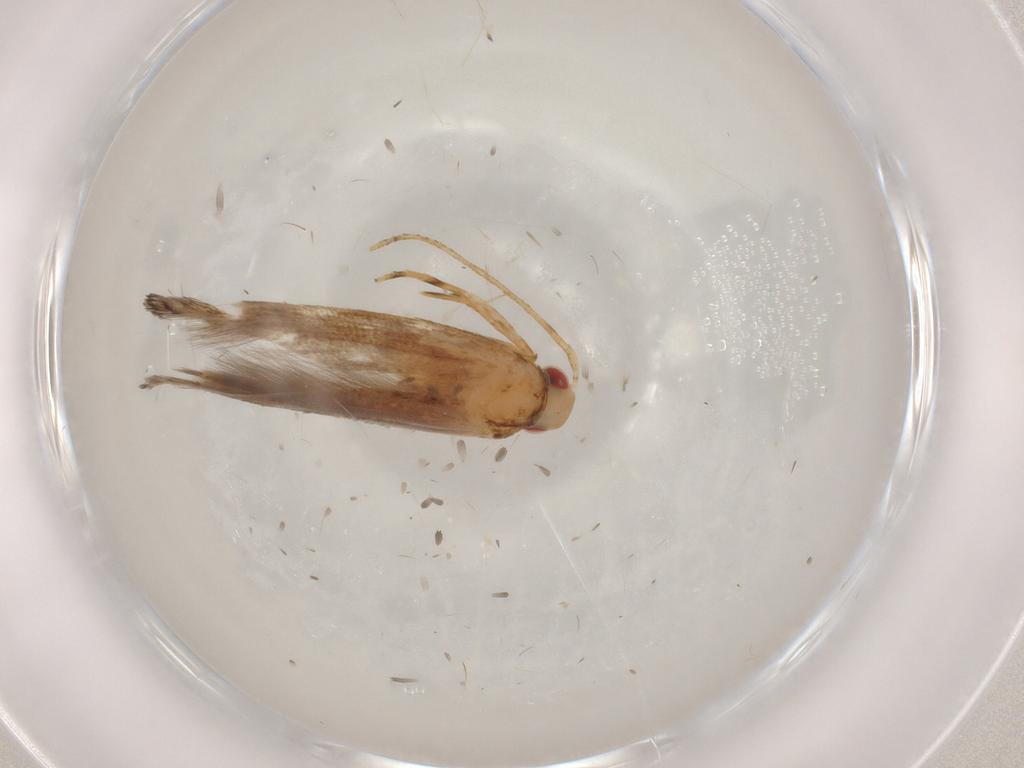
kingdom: Animalia
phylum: Arthropoda
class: Insecta
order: Lepidoptera
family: Cosmopterigidae
